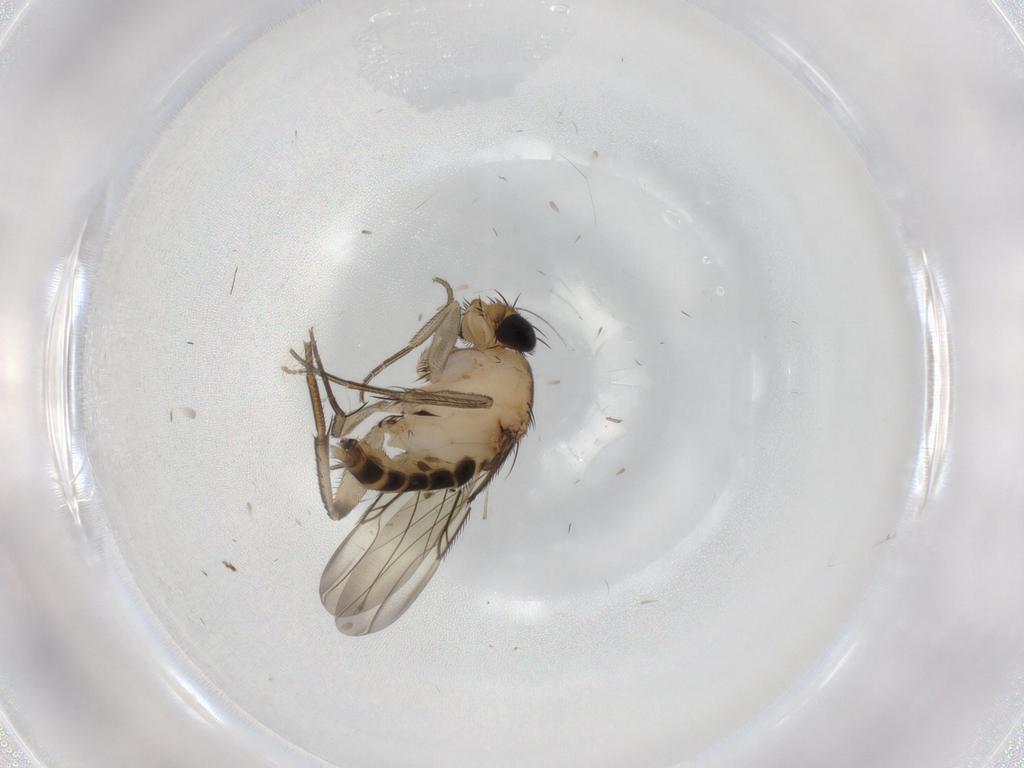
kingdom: Animalia
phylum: Arthropoda
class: Insecta
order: Diptera
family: Phoridae
